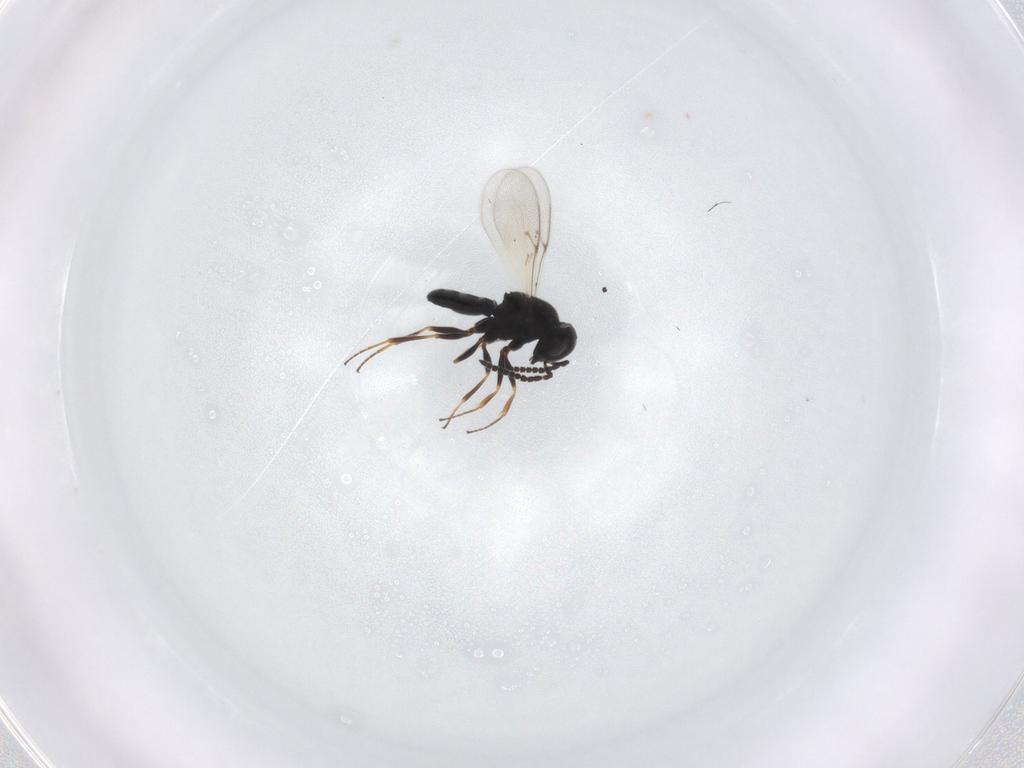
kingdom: Animalia
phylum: Arthropoda
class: Insecta
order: Hymenoptera
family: Scelionidae
